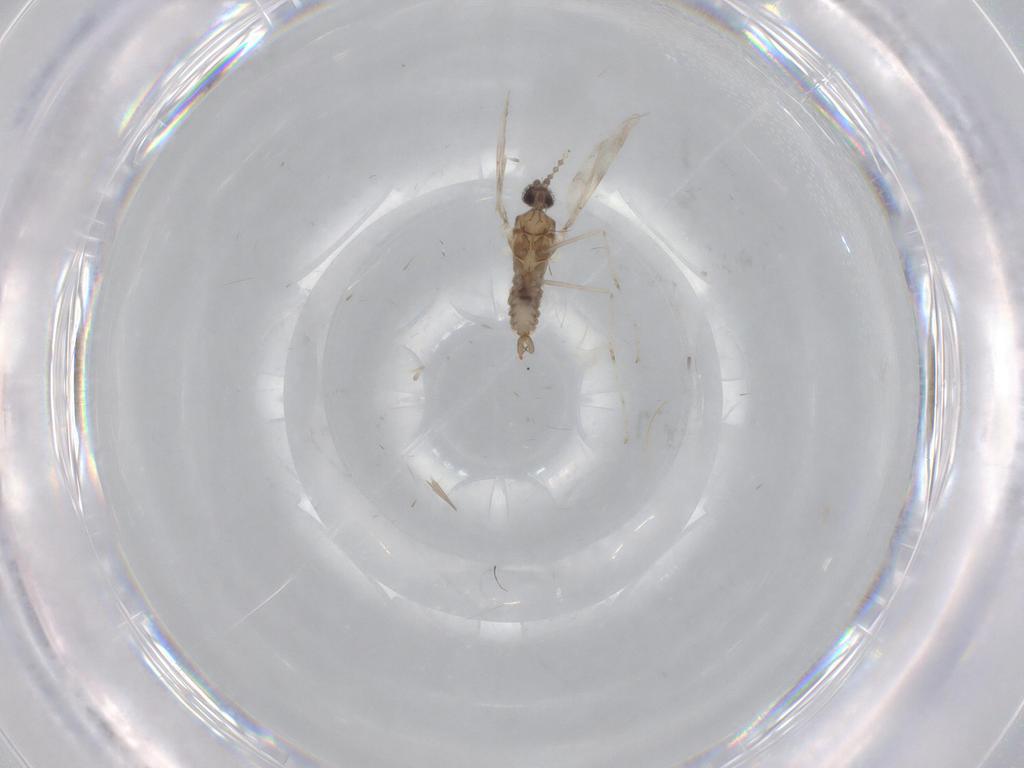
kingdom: Animalia
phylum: Arthropoda
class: Insecta
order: Diptera
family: Cecidomyiidae
